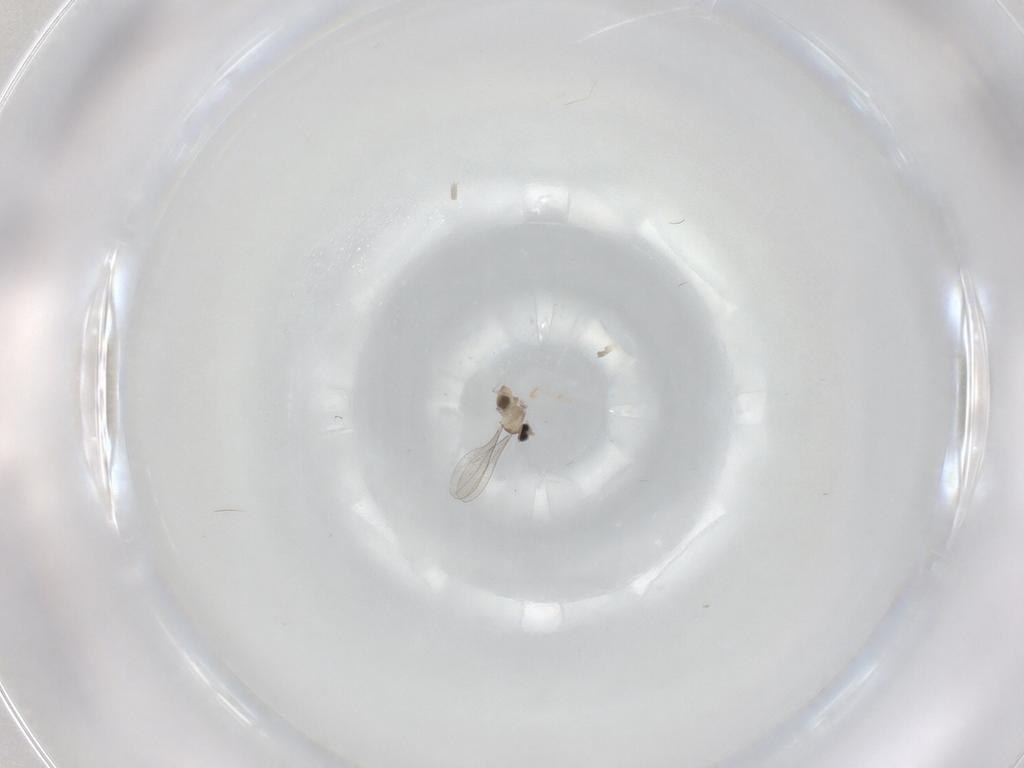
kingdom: Animalia
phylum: Arthropoda
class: Insecta
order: Diptera
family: Cecidomyiidae
